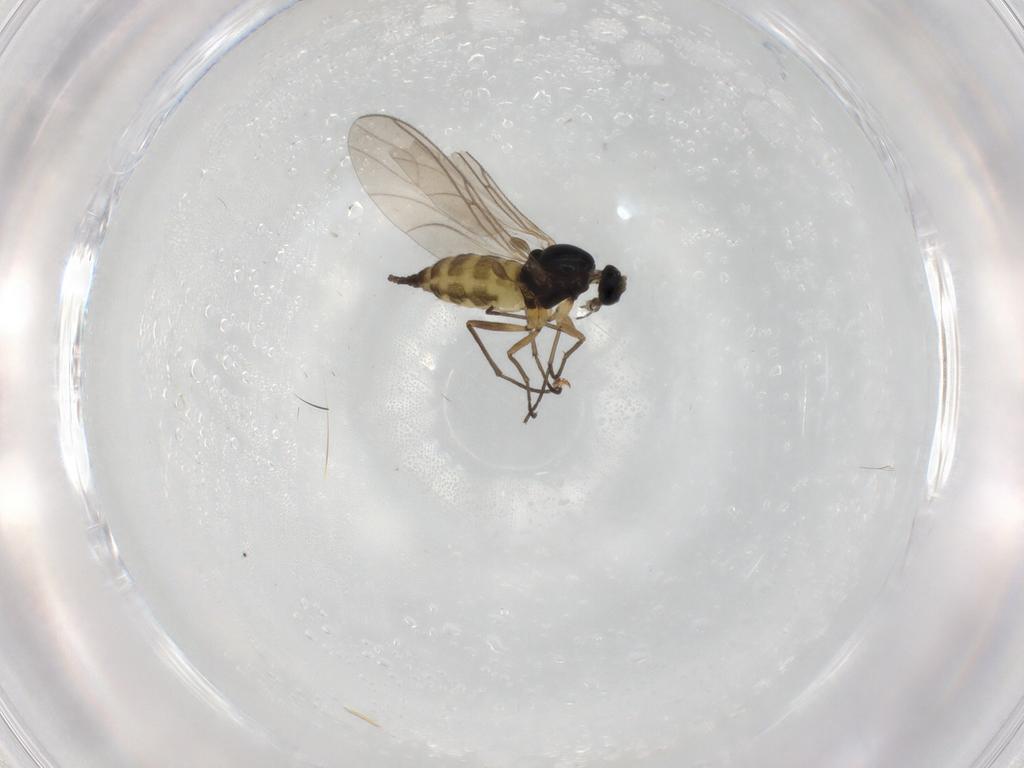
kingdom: Animalia
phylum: Arthropoda
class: Insecta
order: Diptera
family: Sciaridae
